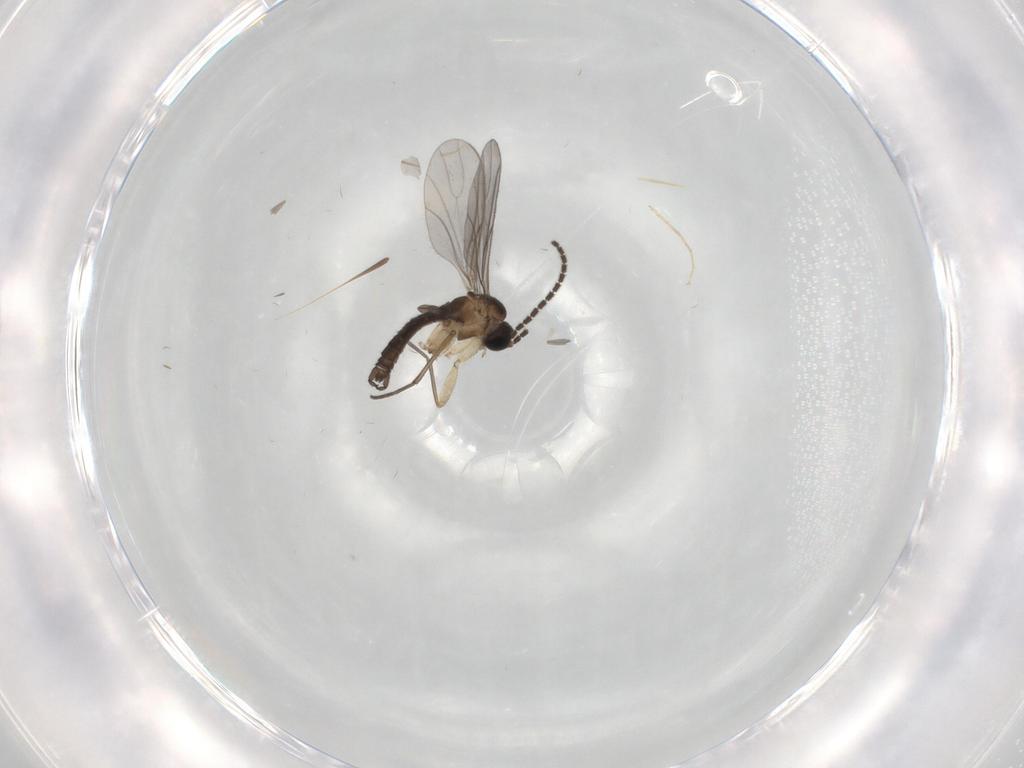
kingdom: Animalia
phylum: Arthropoda
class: Insecta
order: Diptera
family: Sciaridae
